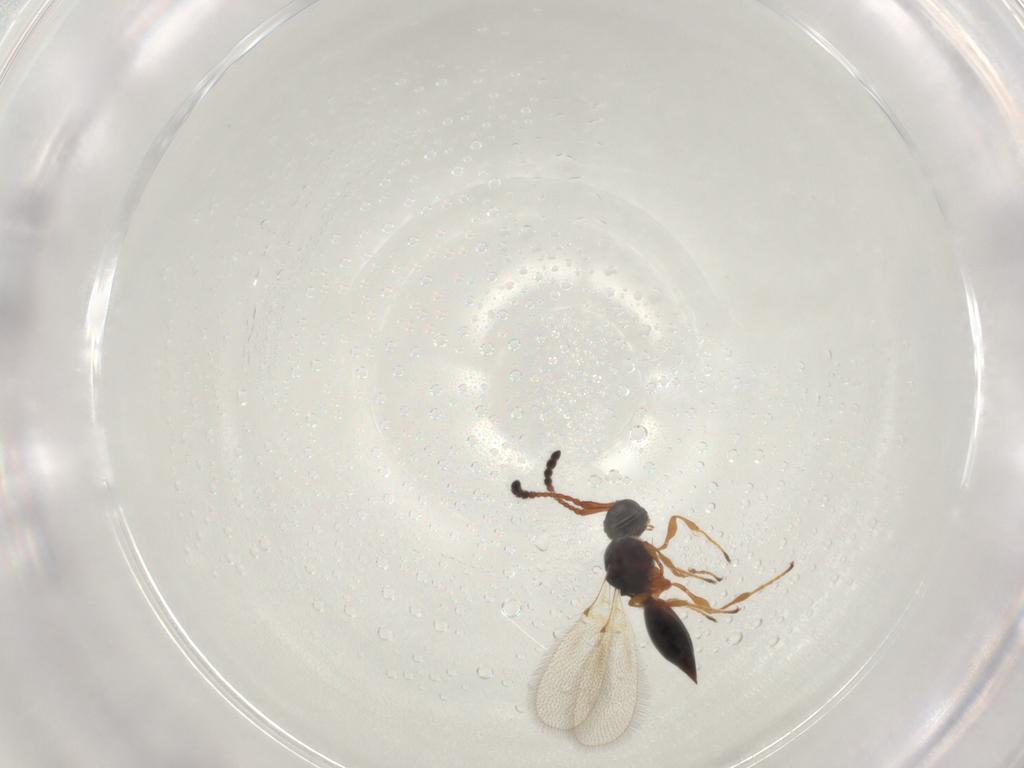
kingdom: Animalia
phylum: Arthropoda
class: Insecta
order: Hymenoptera
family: Diapriidae
